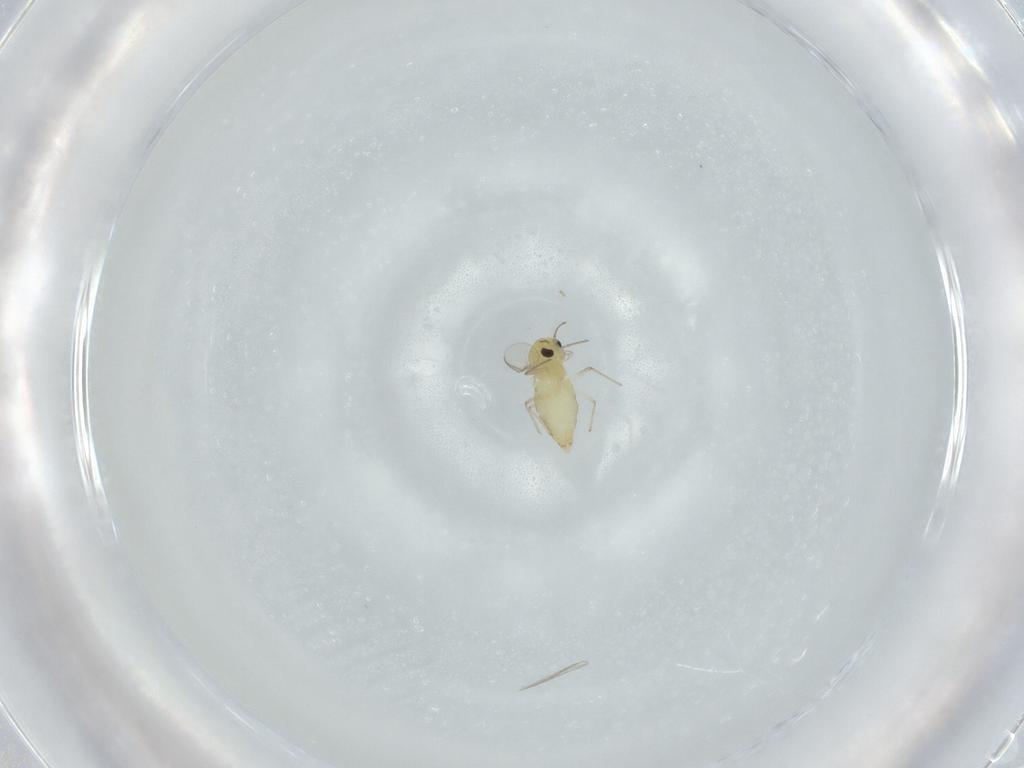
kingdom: Animalia
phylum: Arthropoda
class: Insecta
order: Diptera
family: Chironomidae
